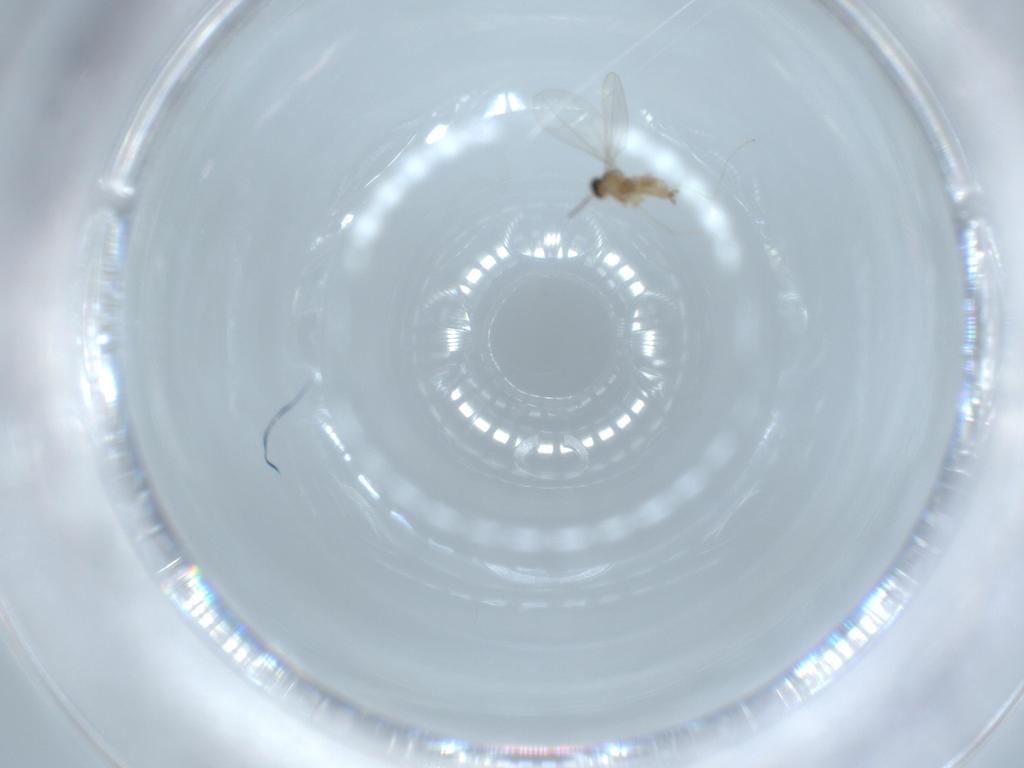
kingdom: Animalia
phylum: Arthropoda
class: Insecta
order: Diptera
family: Cecidomyiidae
